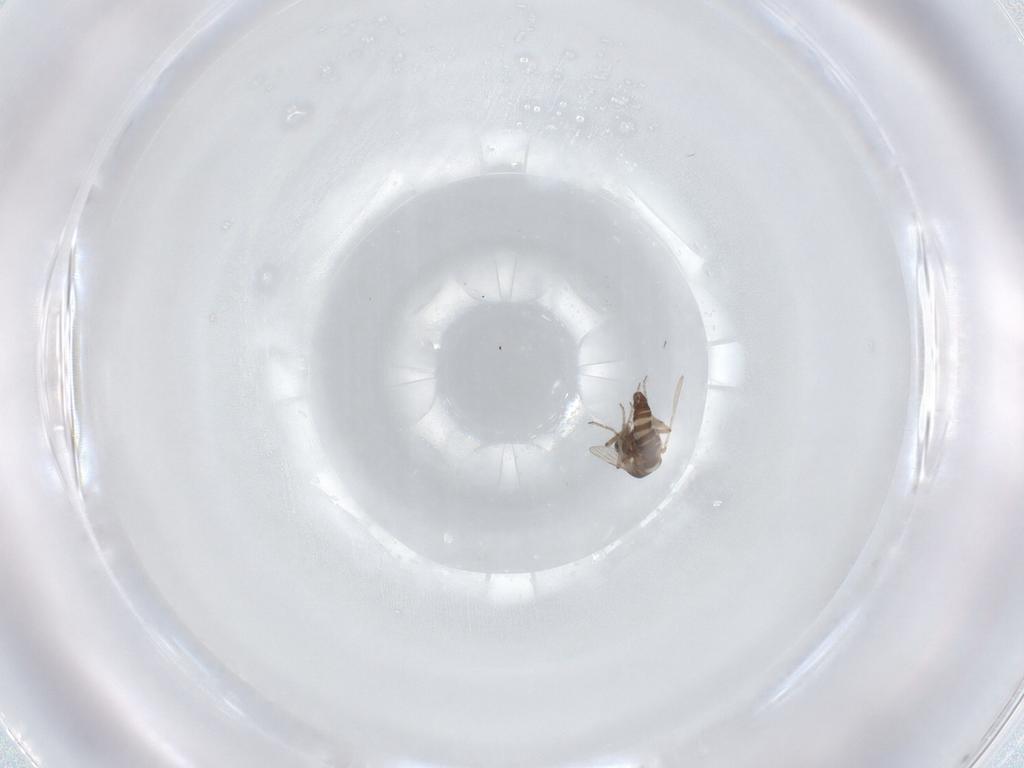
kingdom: Animalia
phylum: Arthropoda
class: Insecta
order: Diptera
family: Ceratopogonidae
